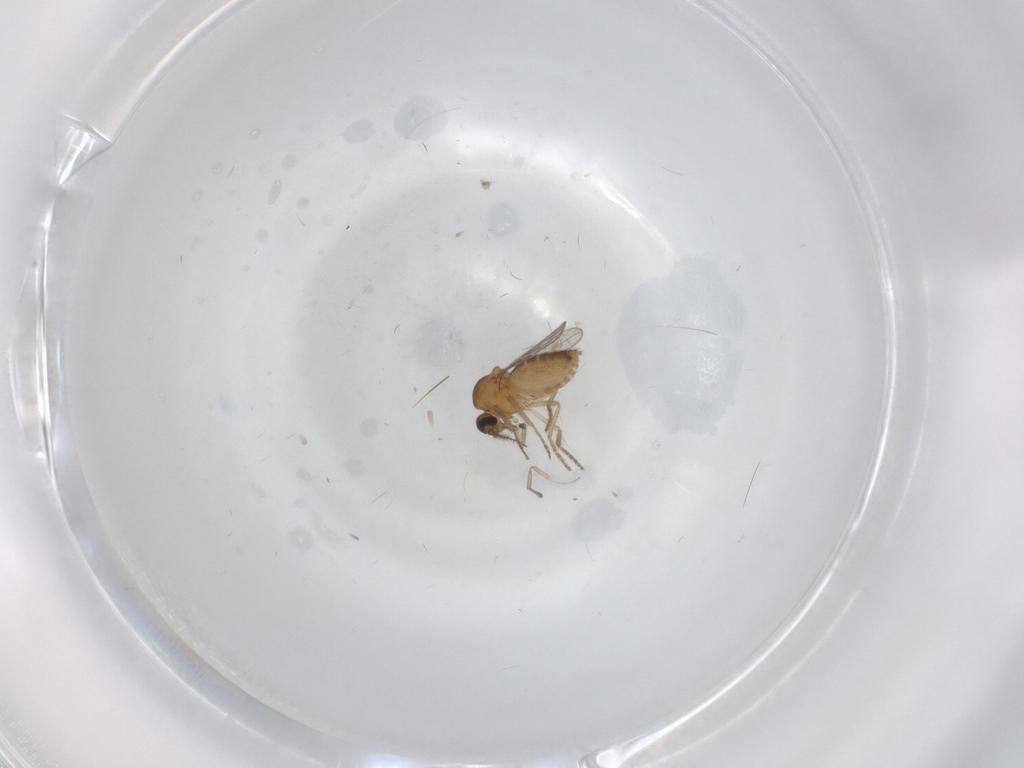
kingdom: Animalia
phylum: Arthropoda
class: Insecta
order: Diptera
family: Ceratopogonidae
